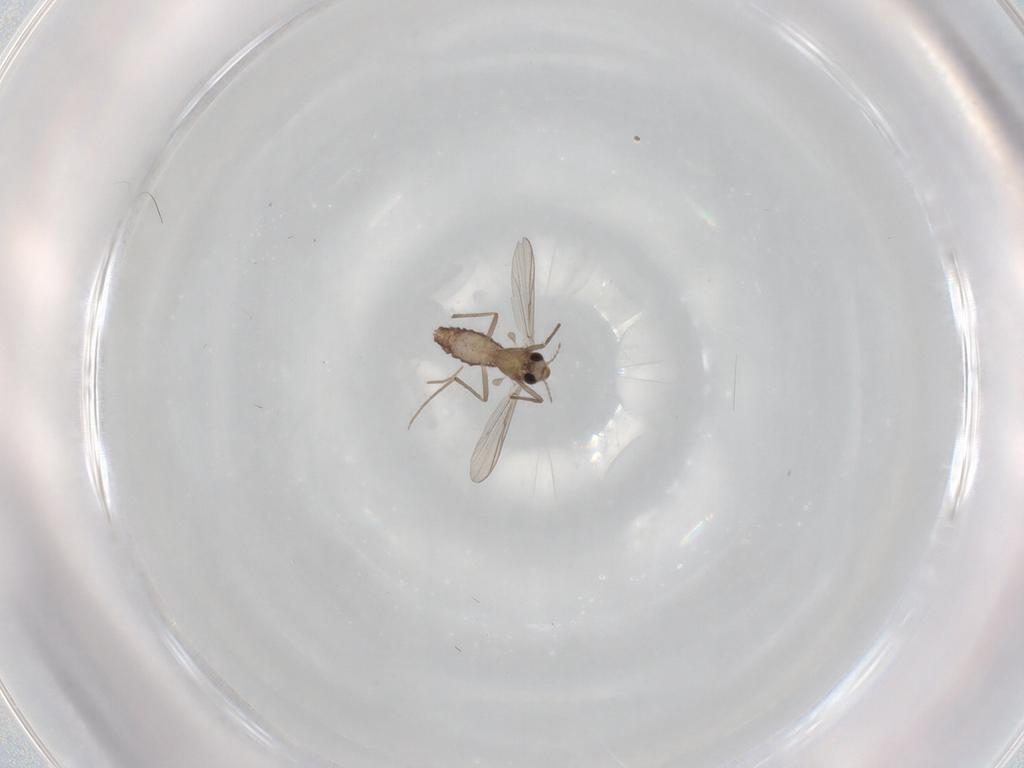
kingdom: Animalia
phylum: Arthropoda
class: Insecta
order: Diptera
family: Chironomidae
